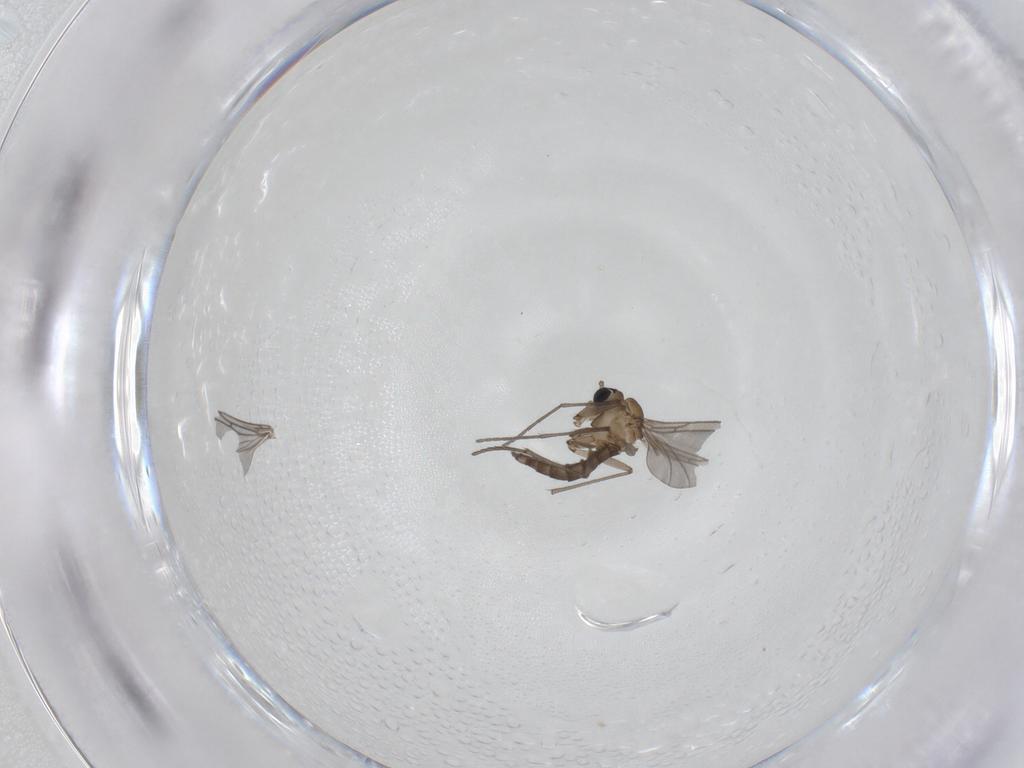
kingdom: Animalia
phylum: Arthropoda
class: Insecta
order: Diptera
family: Sciaridae
